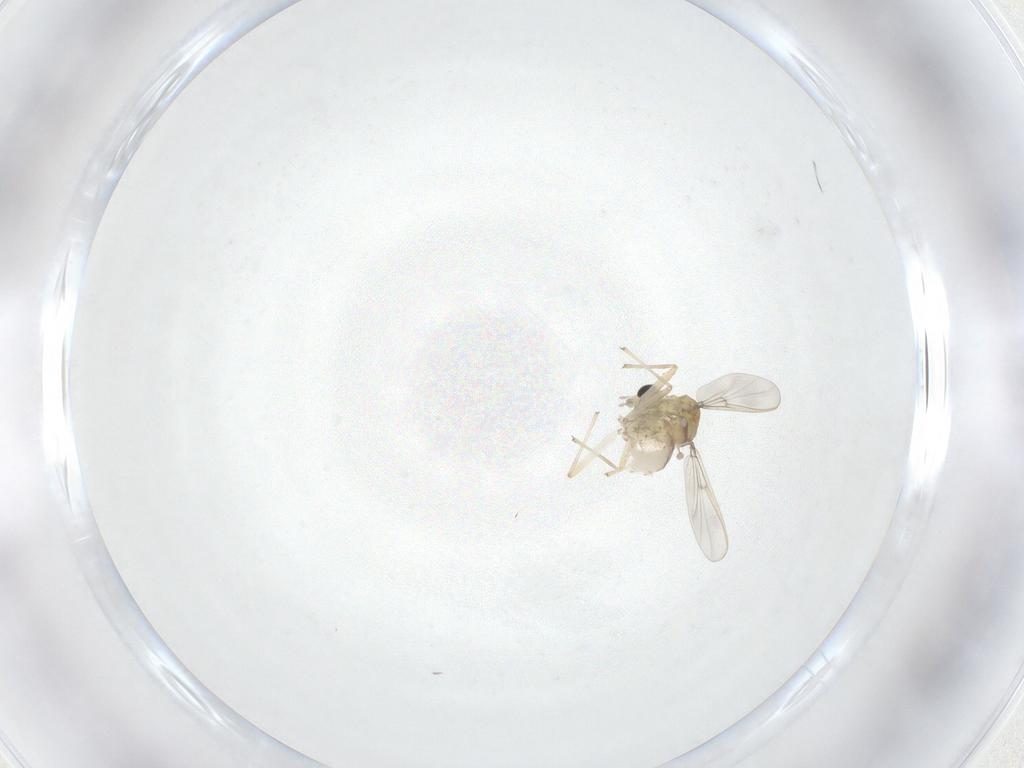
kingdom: Animalia
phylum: Arthropoda
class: Insecta
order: Diptera
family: Chironomidae
